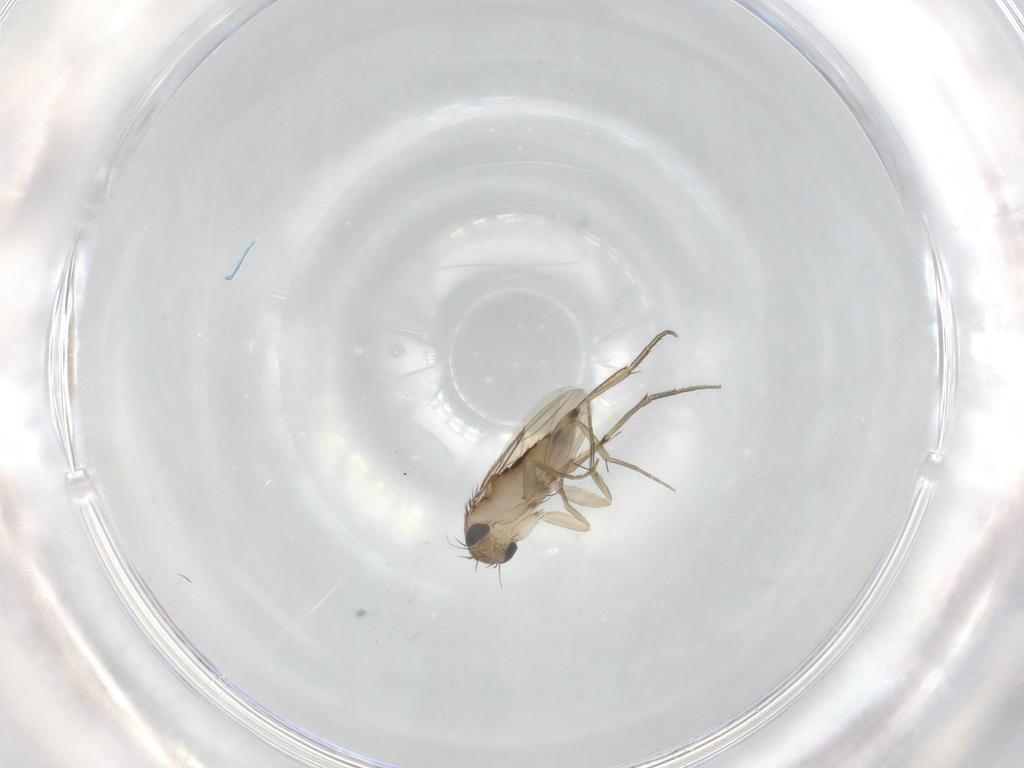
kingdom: Animalia
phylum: Arthropoda
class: Insecta
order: Diptera
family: Phoridae
